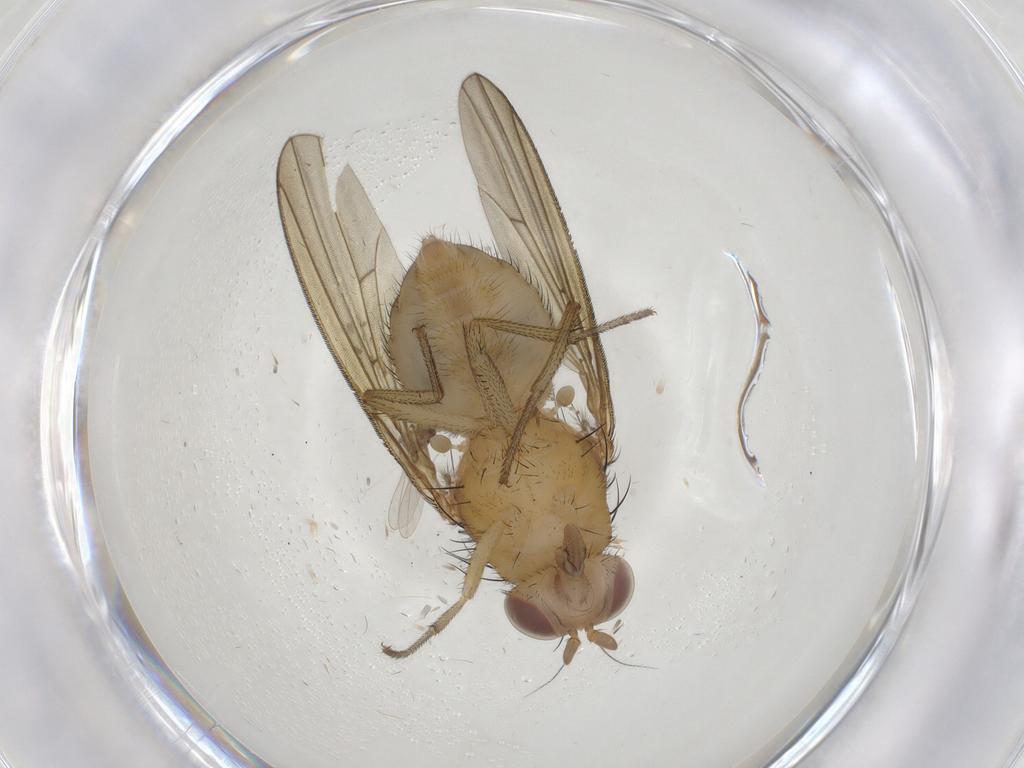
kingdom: Animalia
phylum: Arthropoda
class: Insecta
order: Diptera
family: Cecidomyiidae
